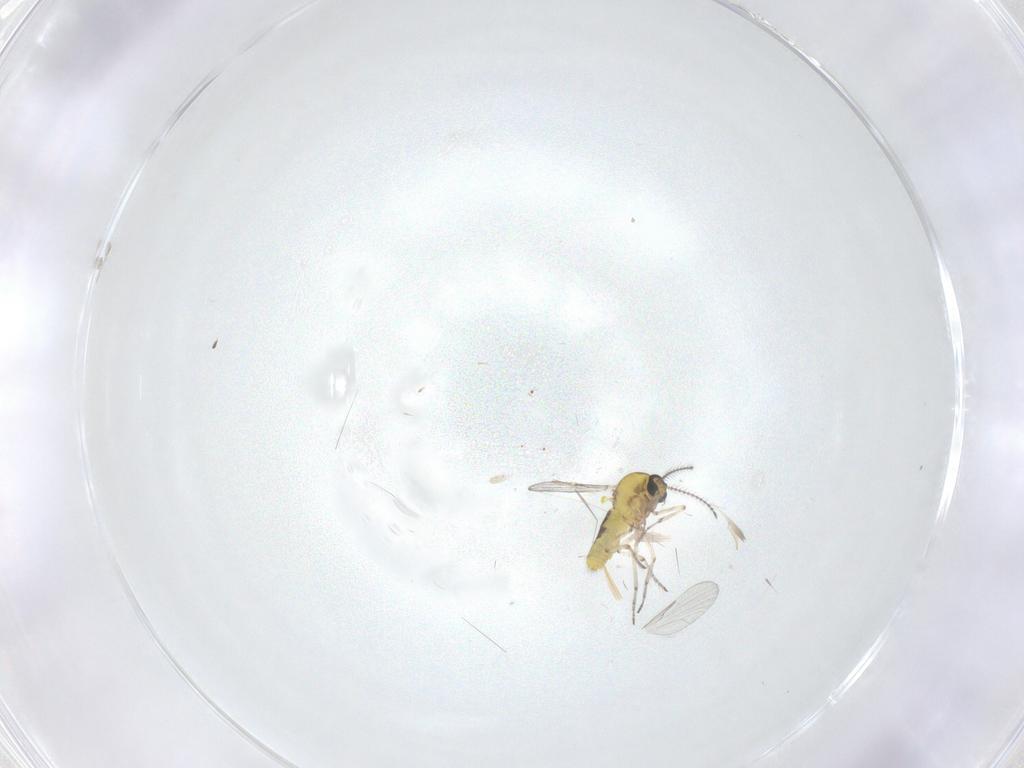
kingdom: Animalia
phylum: Arthropoda
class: Insecta
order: Diptera
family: Ceratopogonidae
